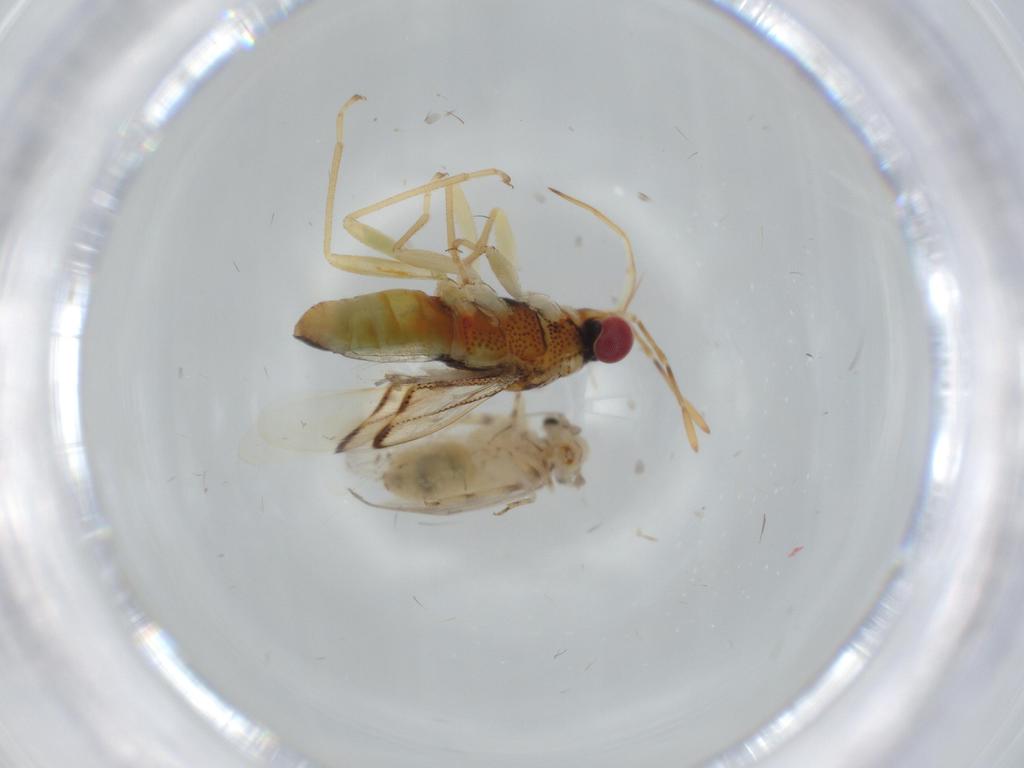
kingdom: Animalia
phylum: Arthropoda
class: Insecta
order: Hemiptera
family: Geocoridae
